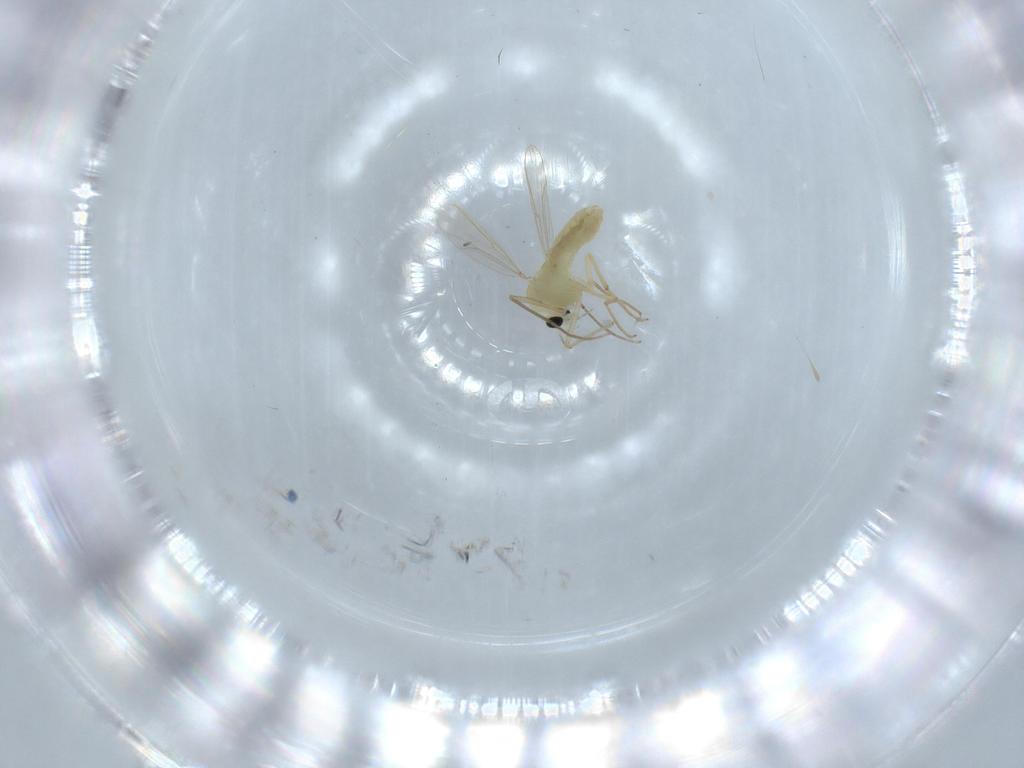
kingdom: Animalia
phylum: Arthropoda
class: Insecta
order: Diptera
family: Chironomidae
